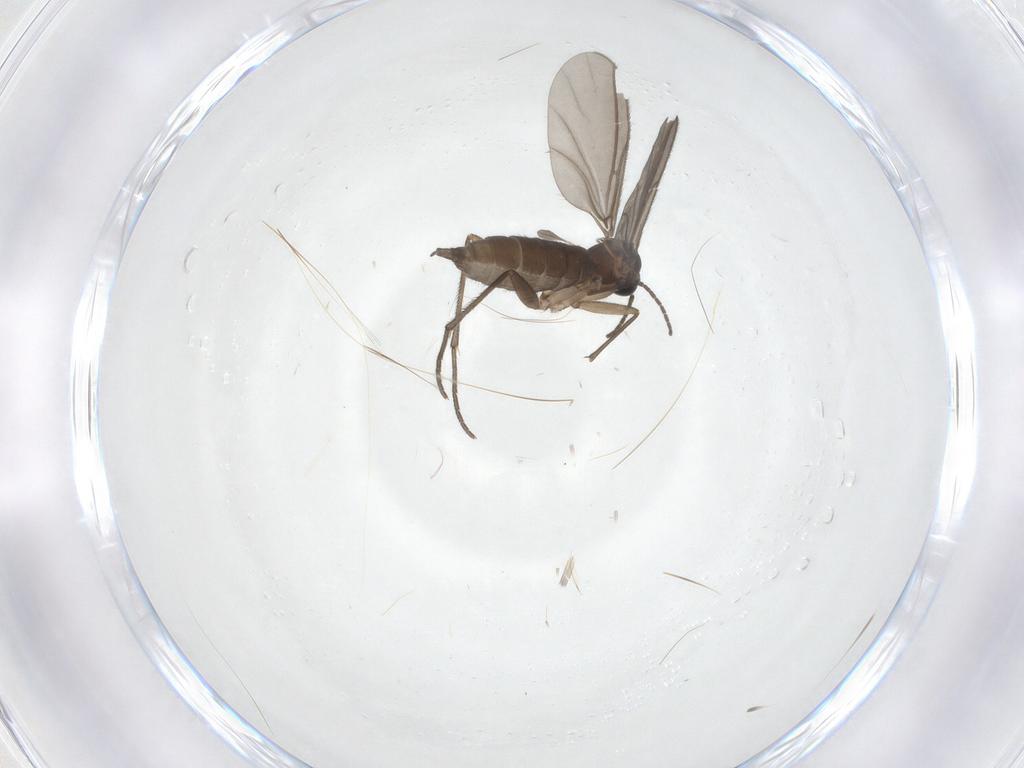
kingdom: Animalia
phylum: Arthropoda
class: Insecta
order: Diptera
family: Sciaridae
